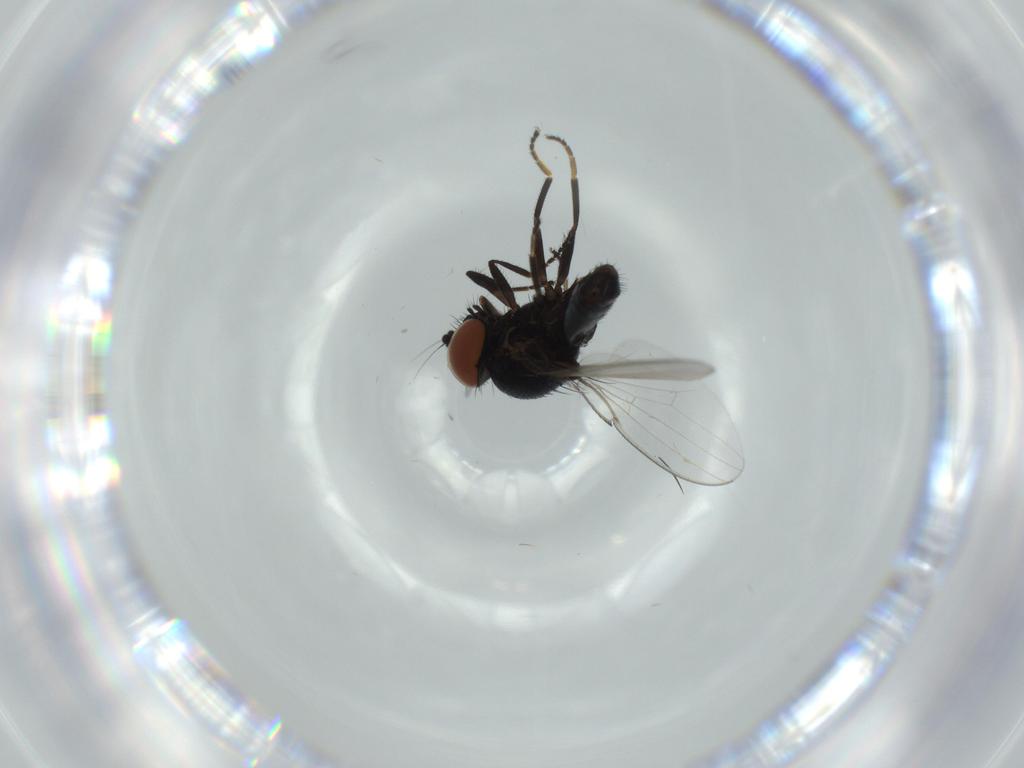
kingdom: Animalia
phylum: Arthropoda
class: Insecta
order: Diptera
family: Milichiidae
